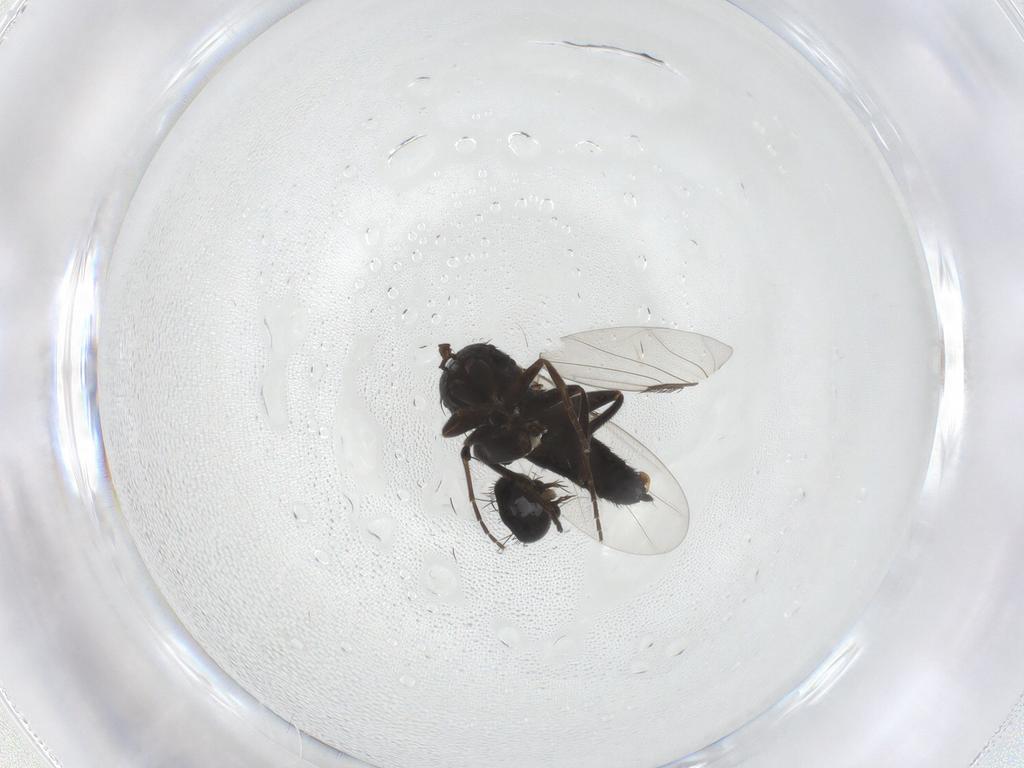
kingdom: Animalia
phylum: Arthropoda
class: Insecta
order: Diptera
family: Phoridae
